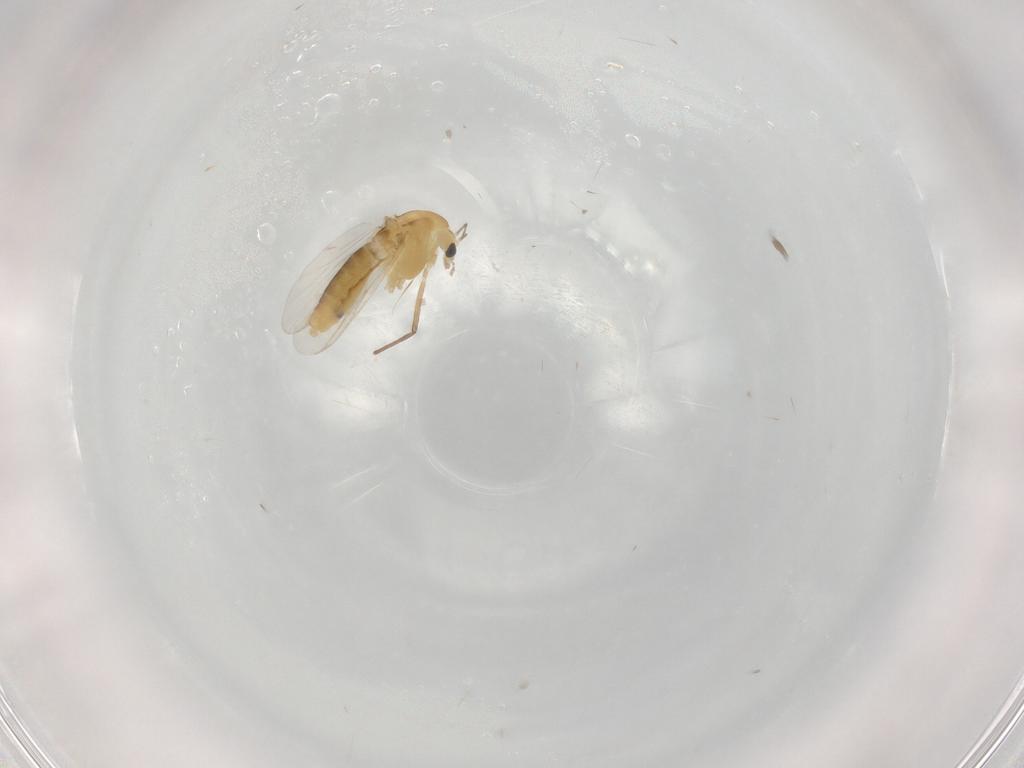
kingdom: Animalia
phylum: Arthropoda
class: Insecta
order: Diptera
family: Chironomidae
